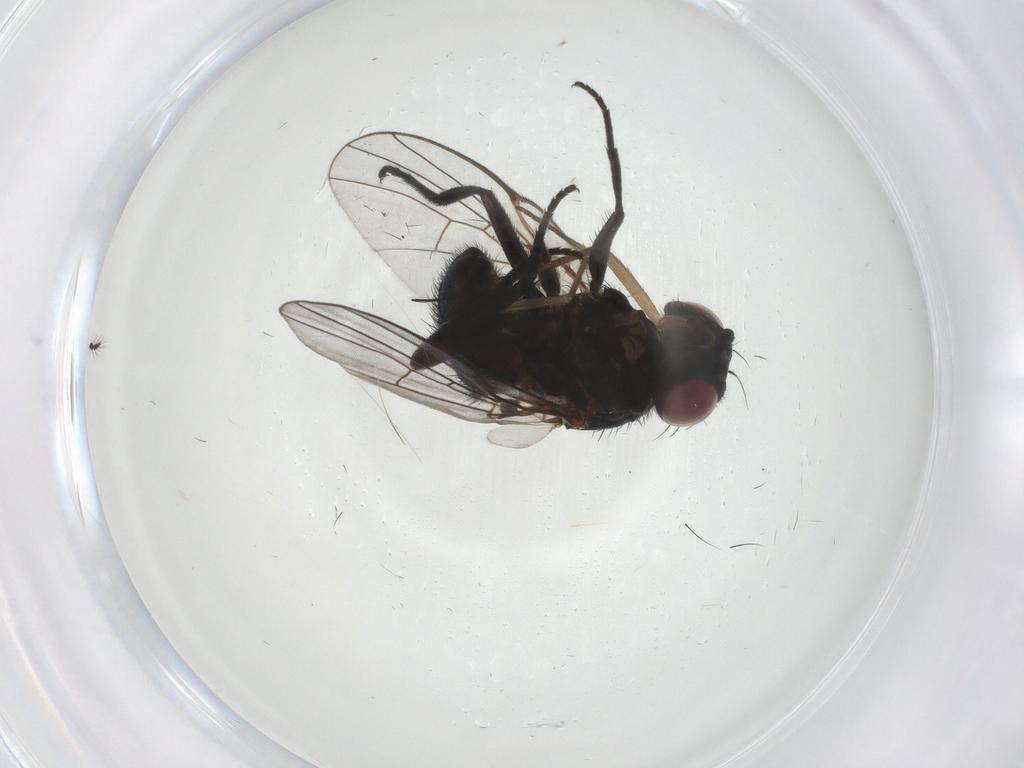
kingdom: Animalia
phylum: Arthropoda
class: Insecta
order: Diptera
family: Agromyzidae
